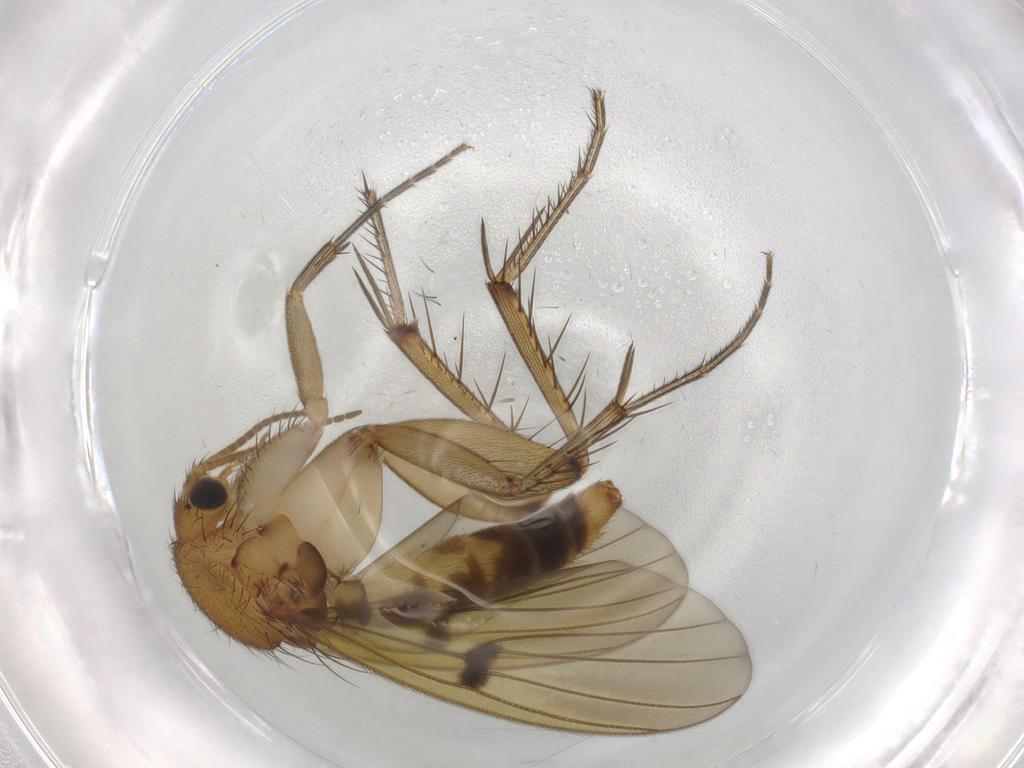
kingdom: Animalia
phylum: Arthropoda
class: Insecta
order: Diptera
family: Mycetophilidae
